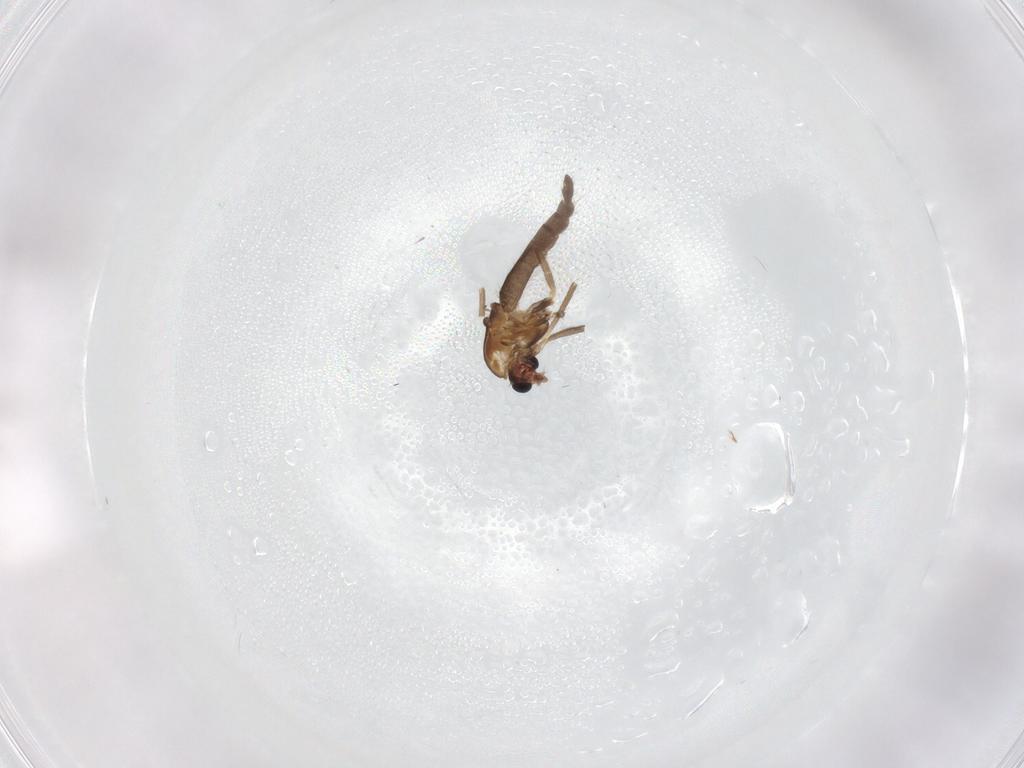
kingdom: Animalia
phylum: Arthropoda
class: Insecta
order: Diptera
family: Chironomidae
